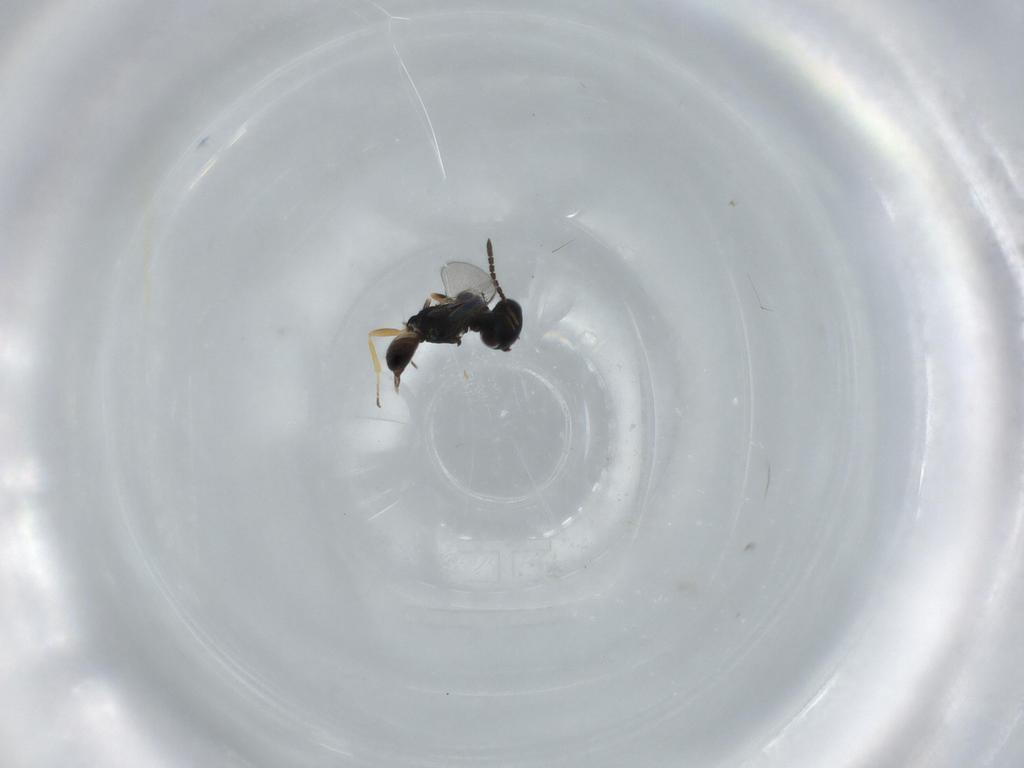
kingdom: Animalia
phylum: Arthropoda
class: Insecta
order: Hymenoptera
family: Pteromalidae
